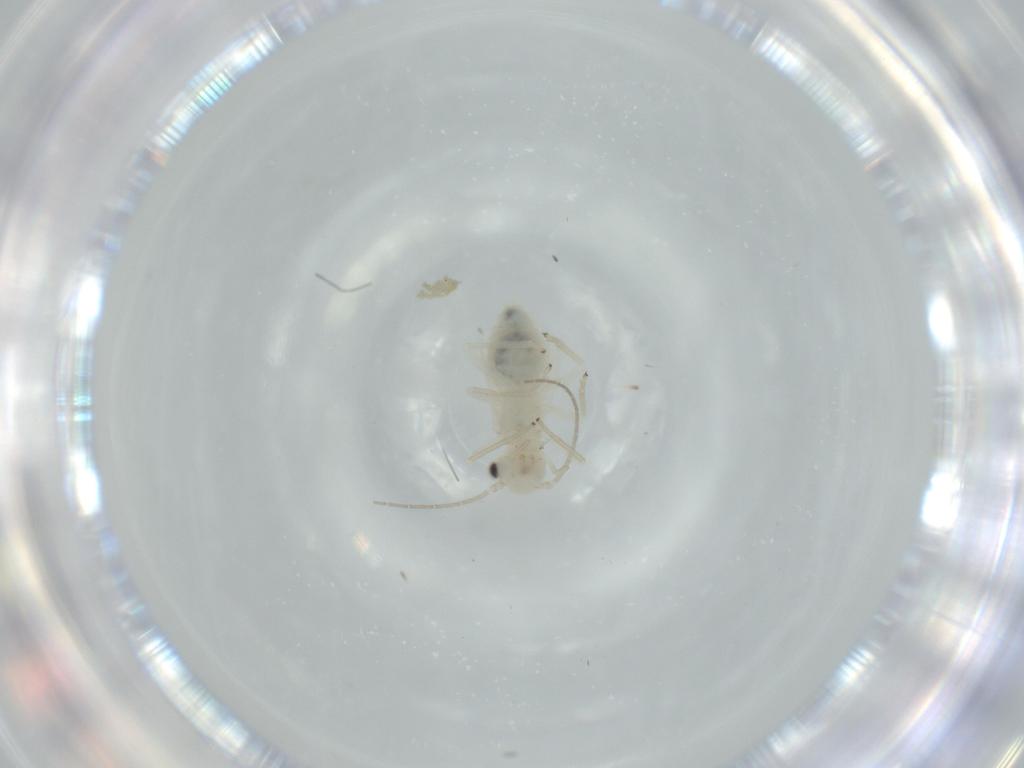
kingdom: Animalia
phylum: Arthropoda
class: Insecta
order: Psocodea
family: Caeciliusidae
